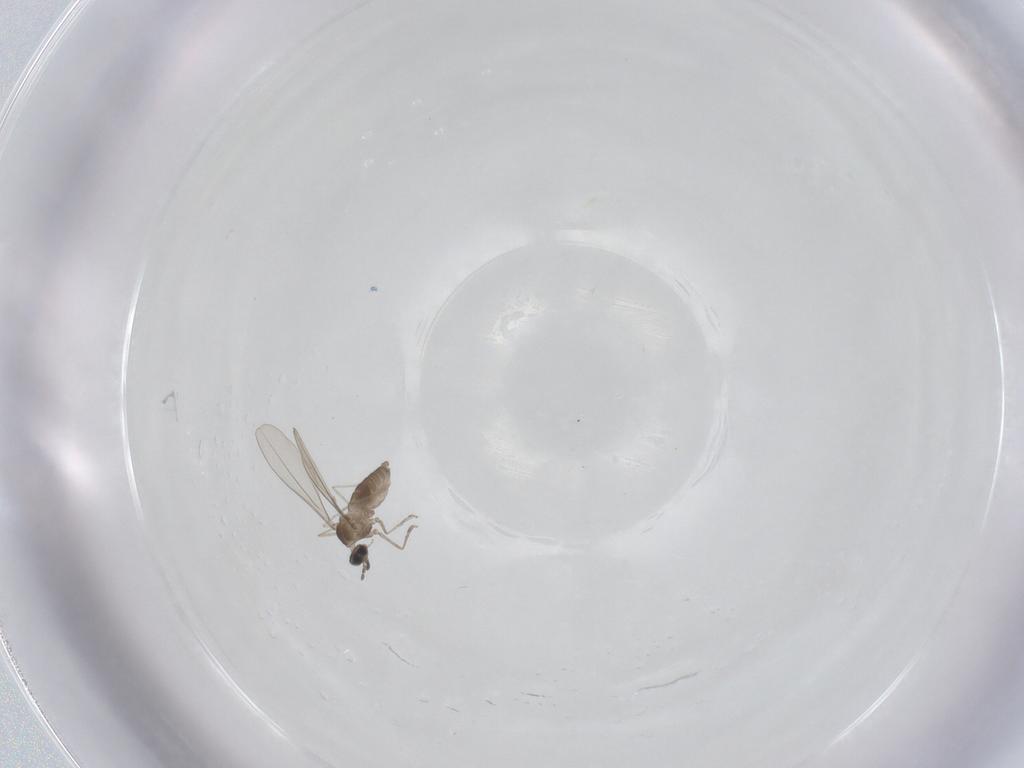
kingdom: Animalia
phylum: Arthropoda
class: Insecta
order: Diptera
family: Cecidomyiidae
